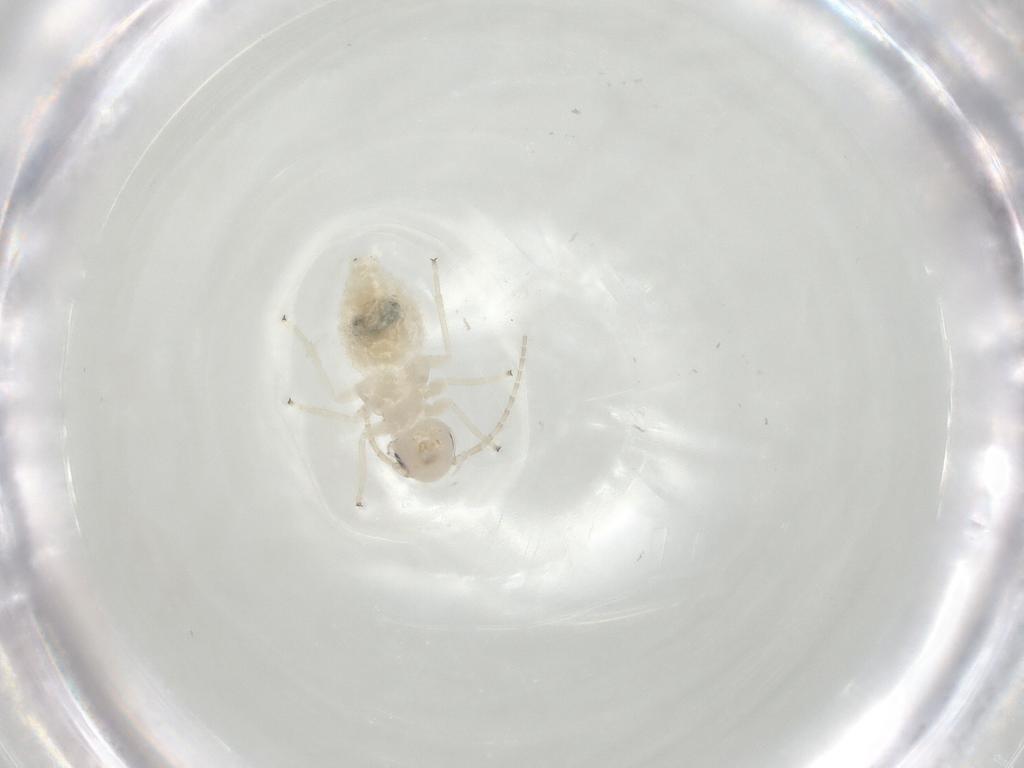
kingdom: Animalia
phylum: Arthropoda
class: Insecta
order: Psocodea
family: Amphipsocidae
